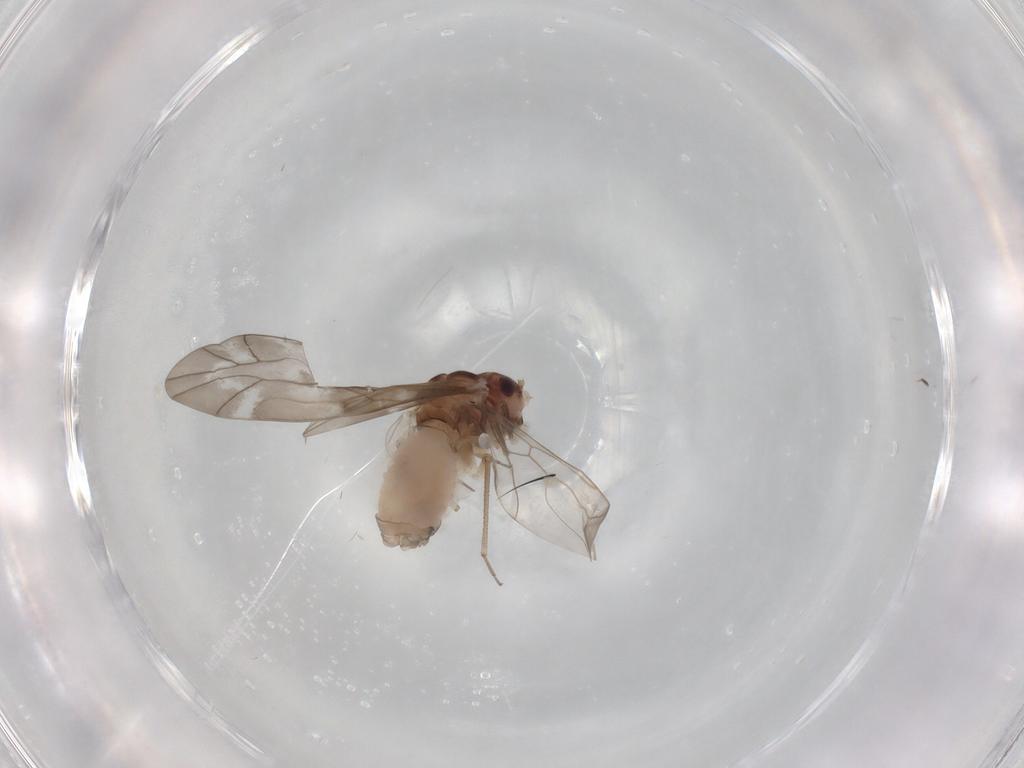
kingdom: Animalia
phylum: Arthropoda
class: Insecta
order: Psocodea
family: Peripsocidae
